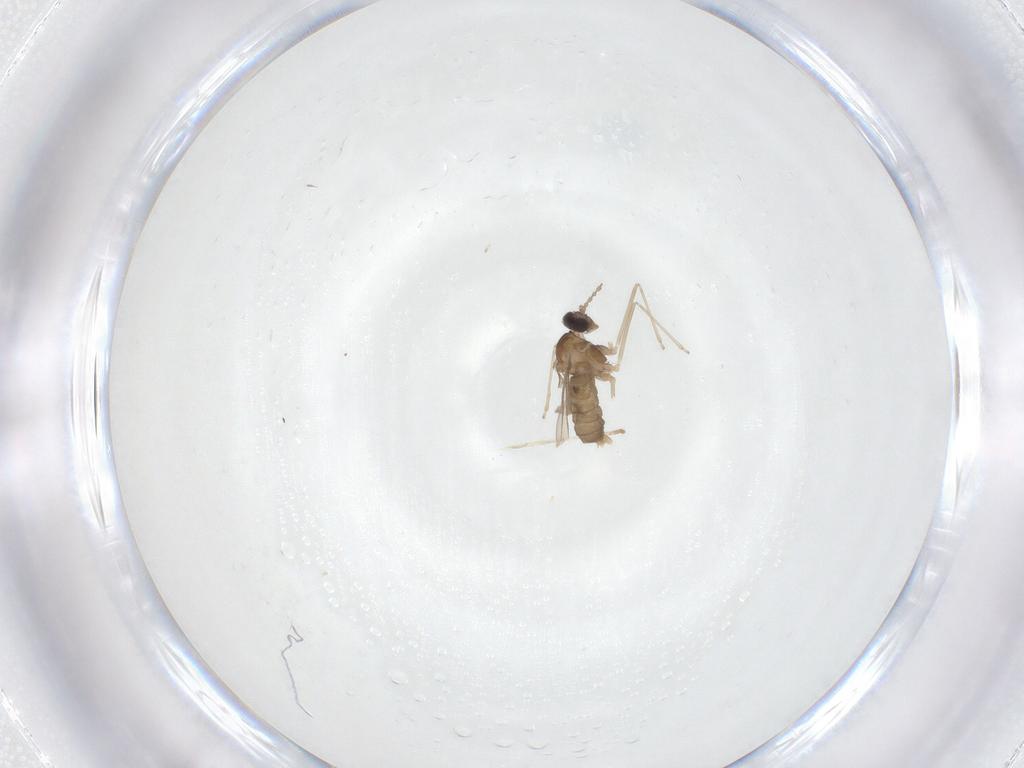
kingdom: Animalia
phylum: Arthropoda
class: Insecta
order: Diptera
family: Cecidomyiidae
